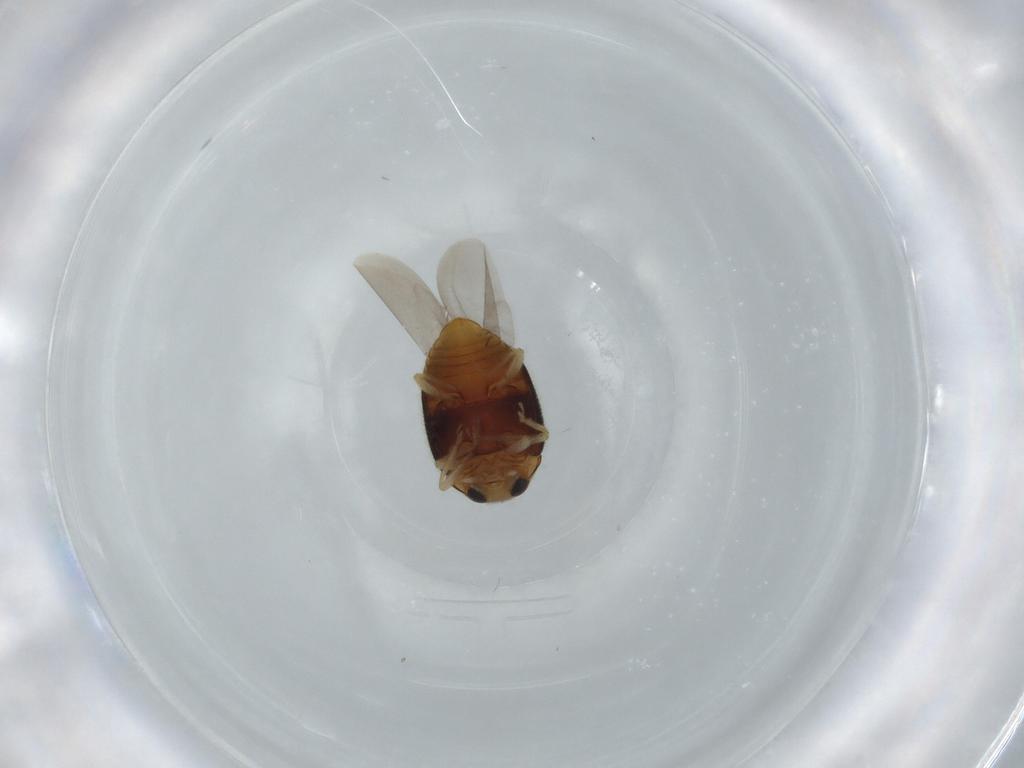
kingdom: Animalia
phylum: Arthropoda
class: Insecta
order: Coleoptera
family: Coccinellidae
